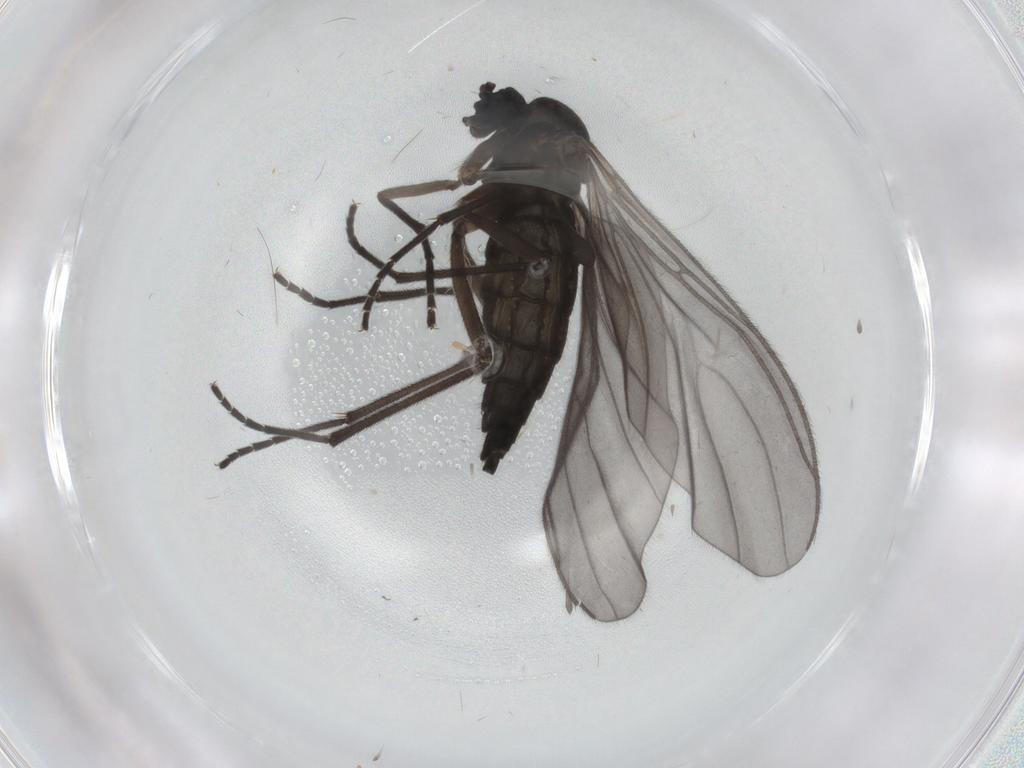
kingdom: Animalia
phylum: Arthropoda
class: Insecta
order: Diptera
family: Sciaridae
